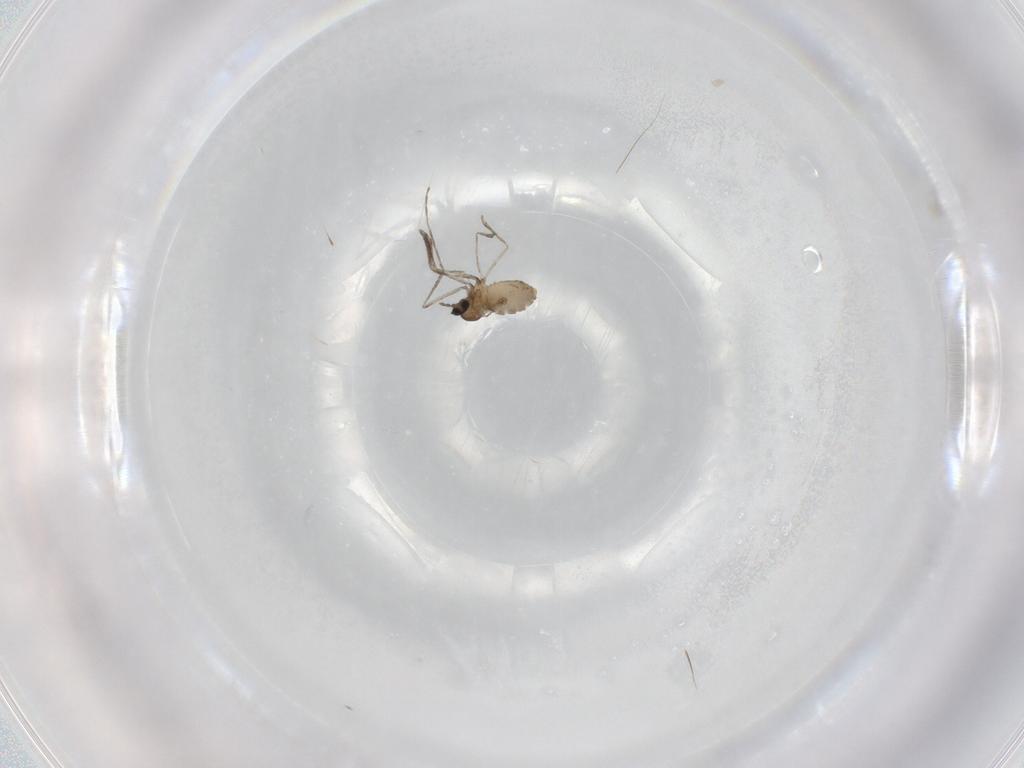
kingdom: Animalia
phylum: Arthropoda
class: Insecta
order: Diptera
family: Cecidomyiidae
